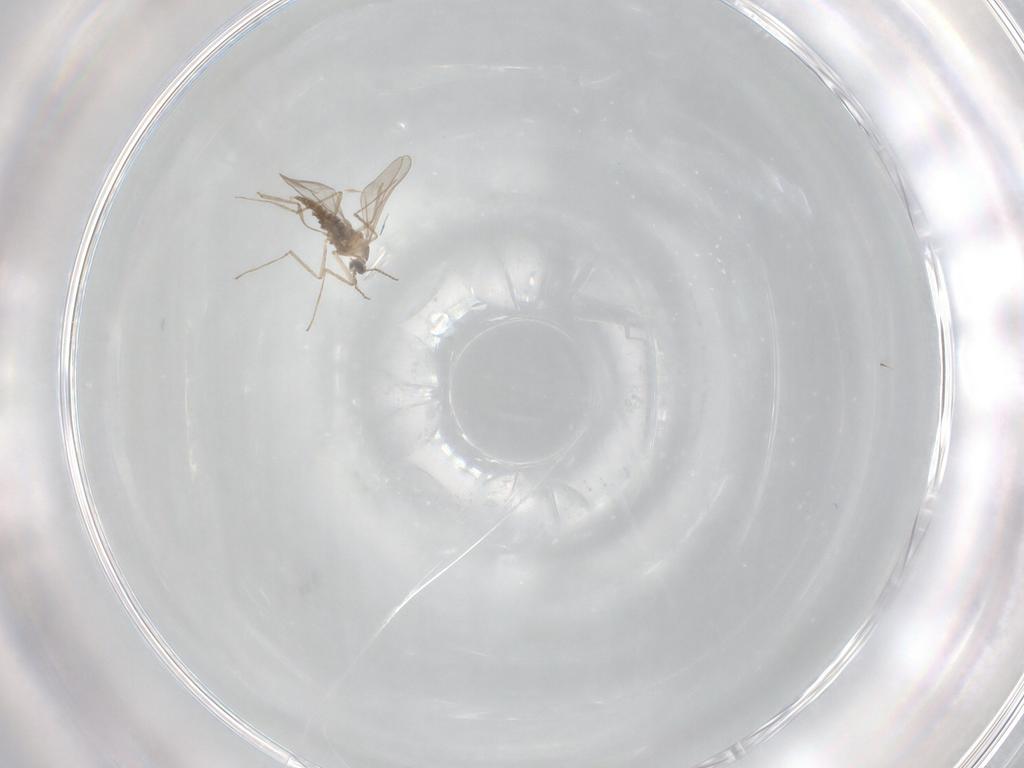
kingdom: Animalia
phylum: Arthropoda
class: Insecta
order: Diptera
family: Cecidomyiidae
